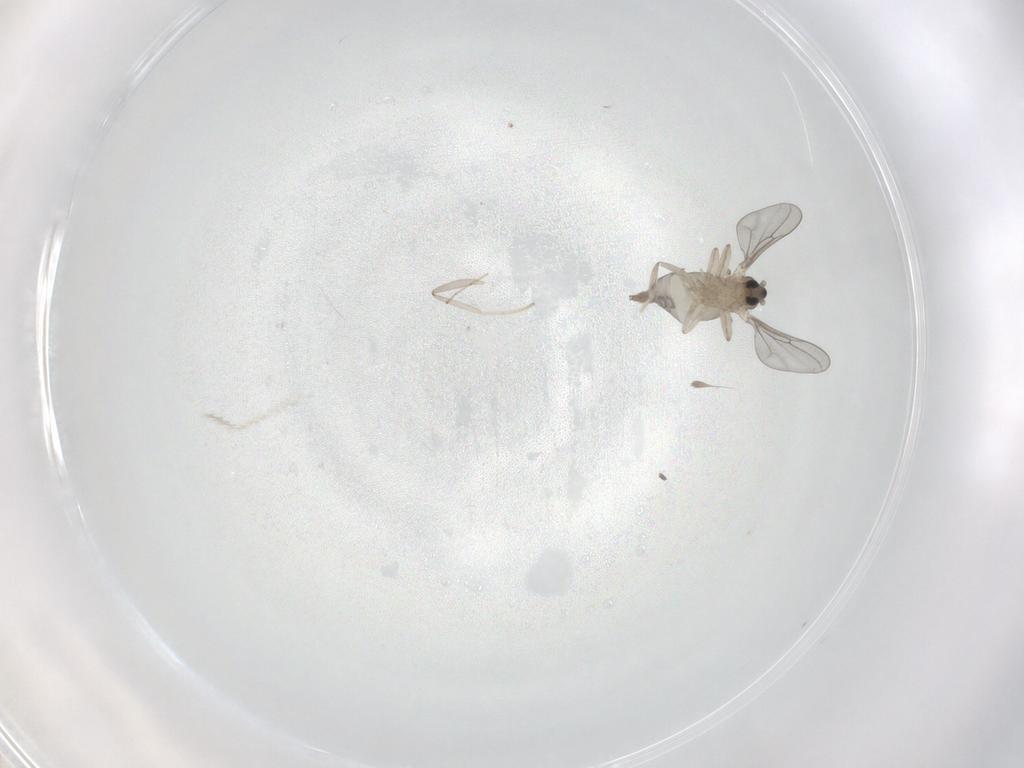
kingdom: Animalia
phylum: Arthropoda
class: Insecta
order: Diptera
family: Cecidomyiidae
